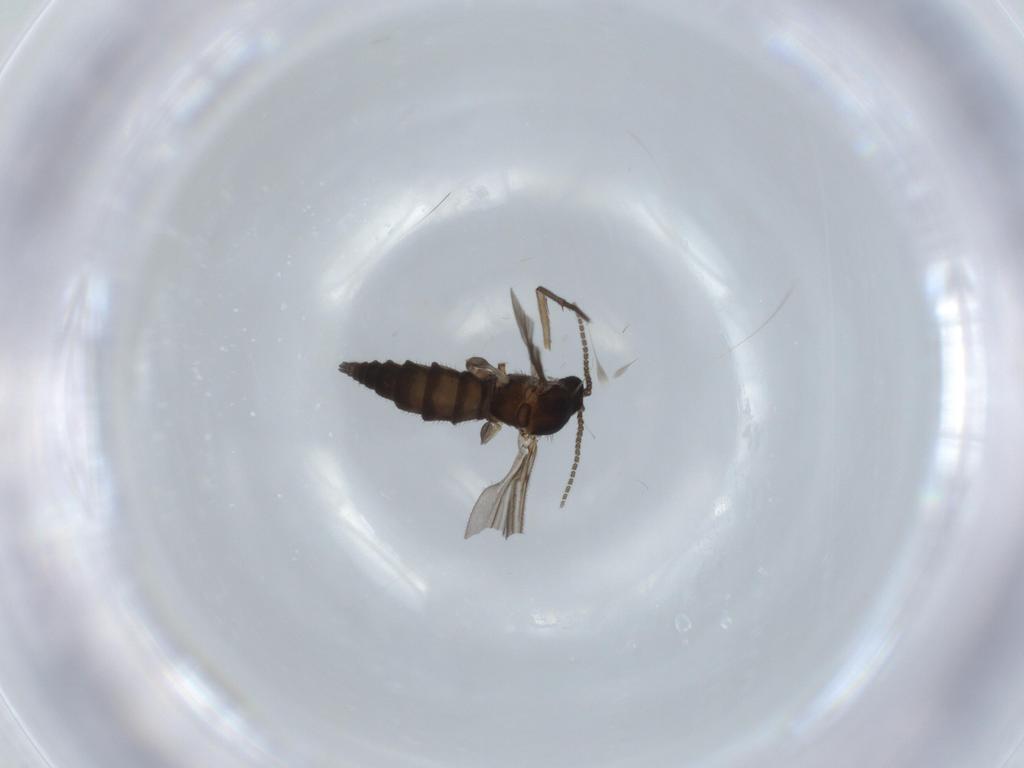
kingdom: Animalia
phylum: Arthropoda
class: Insecta
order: Diptera
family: Sciaridae
